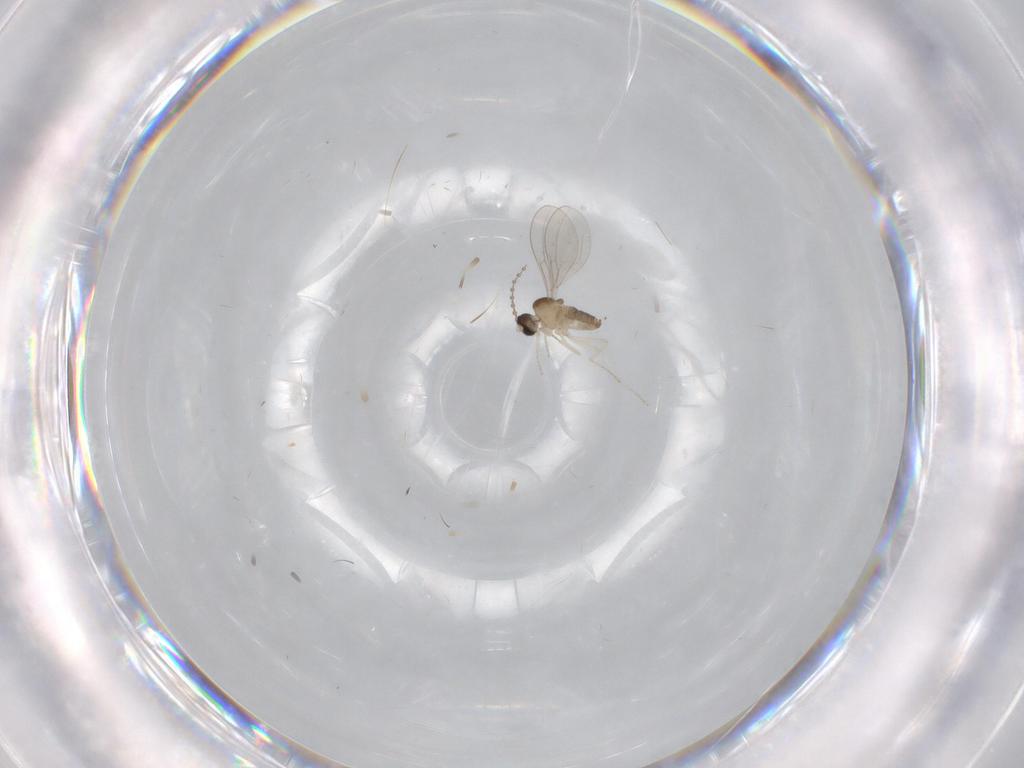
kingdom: Animalia
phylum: Arthropoda
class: Insecta
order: Diptera
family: Cecidomyiidae
